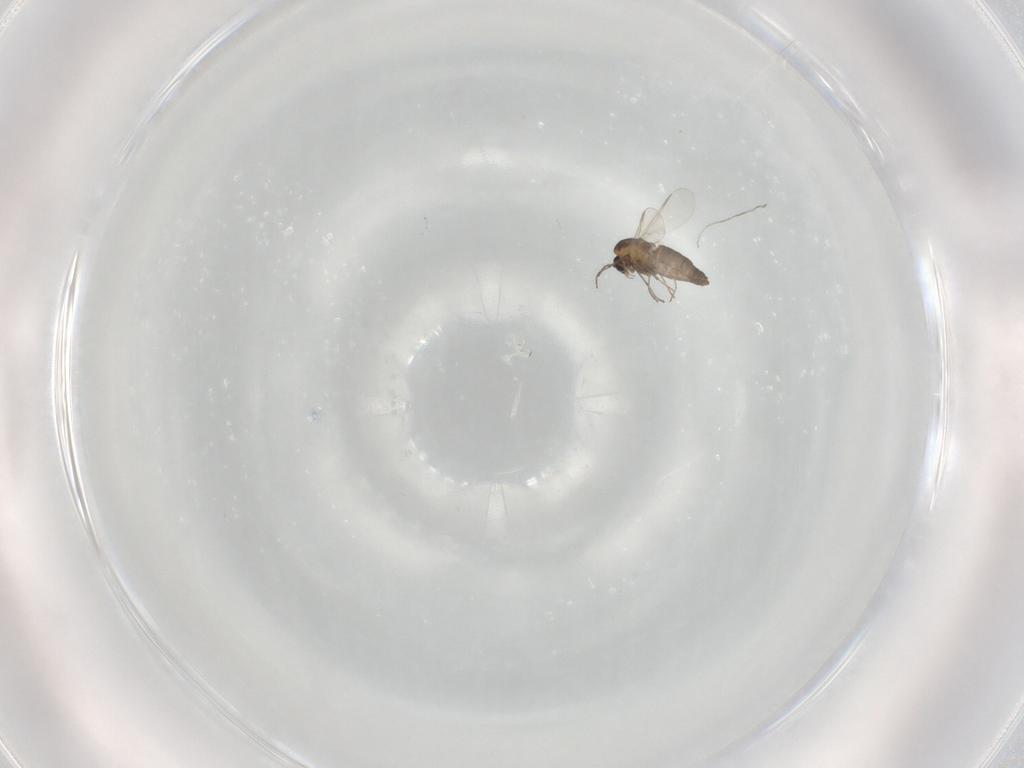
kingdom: Animalia
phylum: Arthropoda
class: Insecta
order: Diptera
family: Chironomidae
